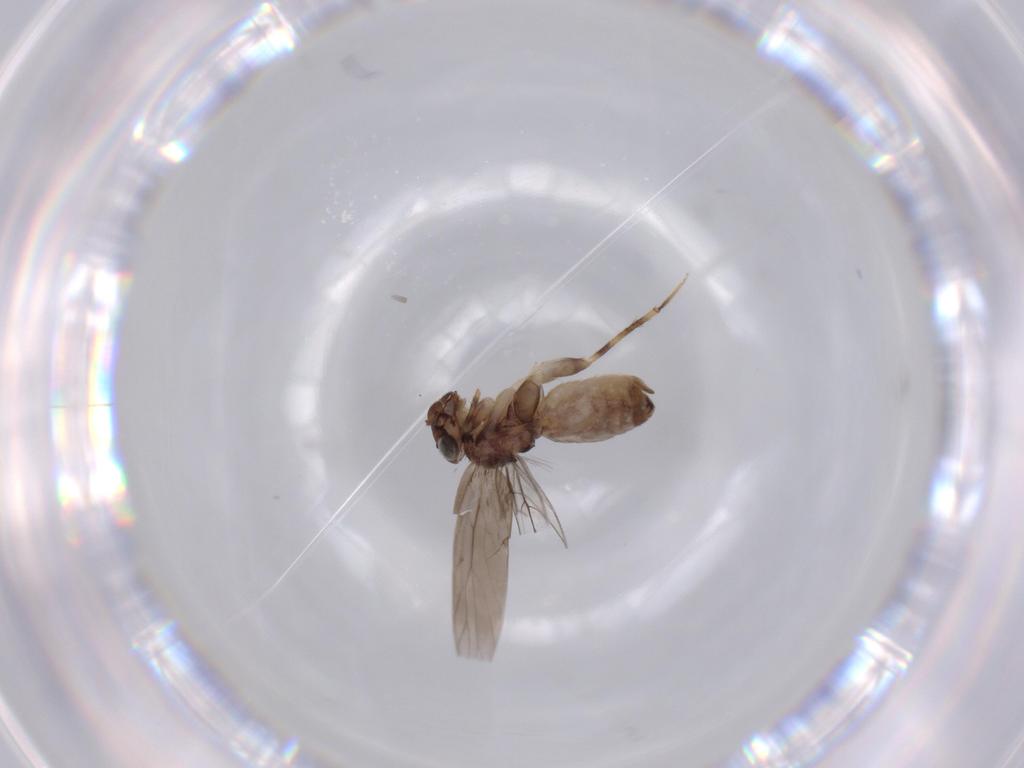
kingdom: Animalia
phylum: Arthropoda
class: Insecta
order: Psocodea
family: Lepidopsocidae
